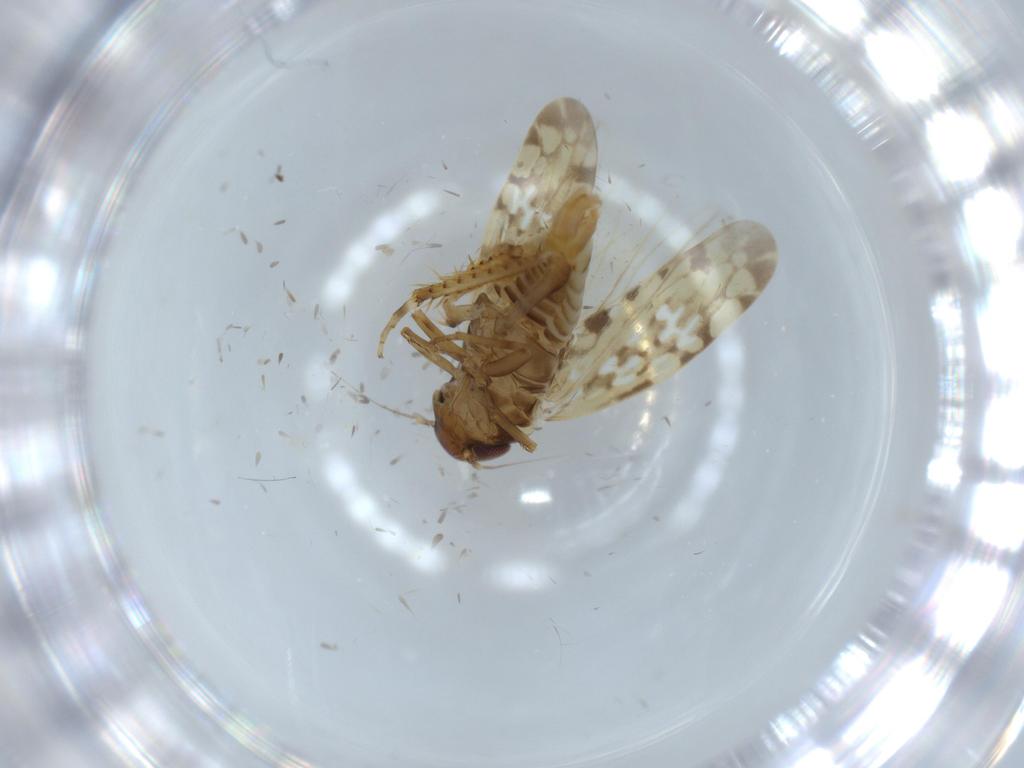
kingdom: Animalia
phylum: Arthropoda
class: Insecta
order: Hemiptera
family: Cicadellidae
